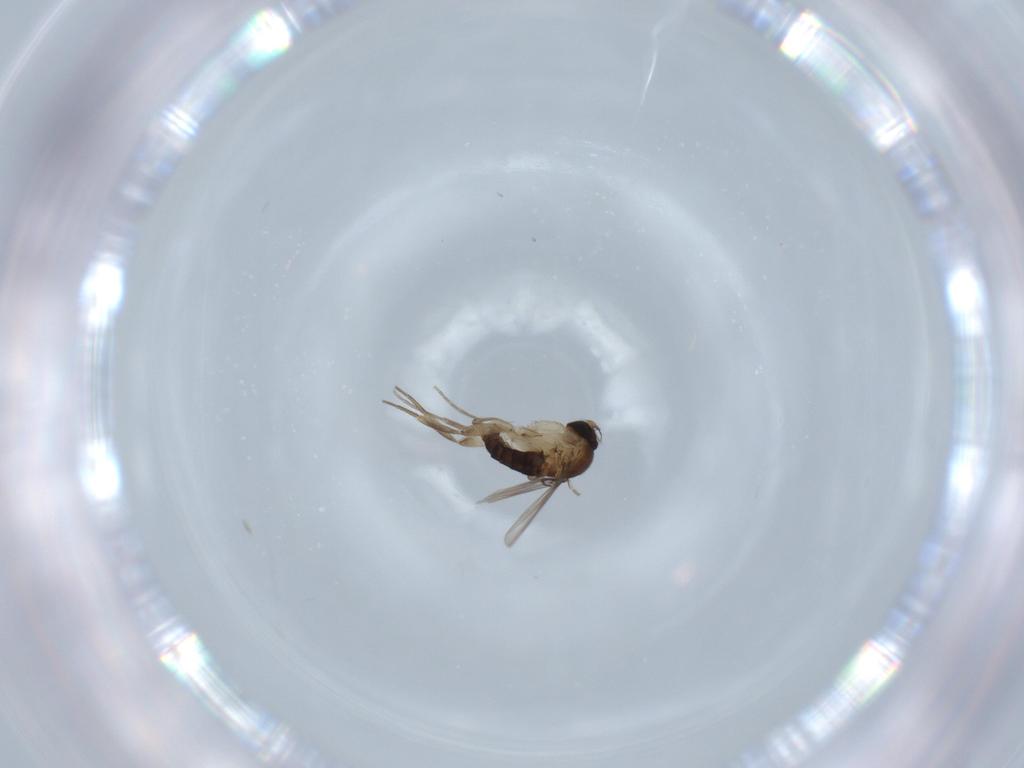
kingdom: Animalia
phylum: Arthropoda
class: Insecta
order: Diptera
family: Phoridae
